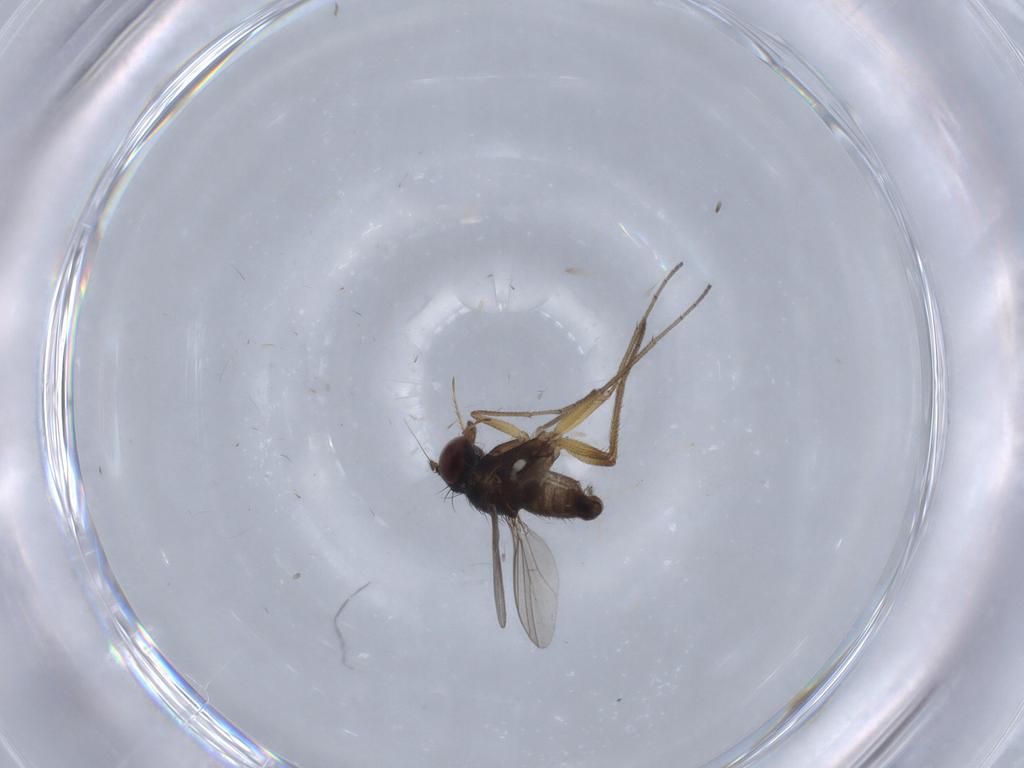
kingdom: Animalia
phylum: Arthropoda
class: Insecta
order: Diptera
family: Dolichopodidae
